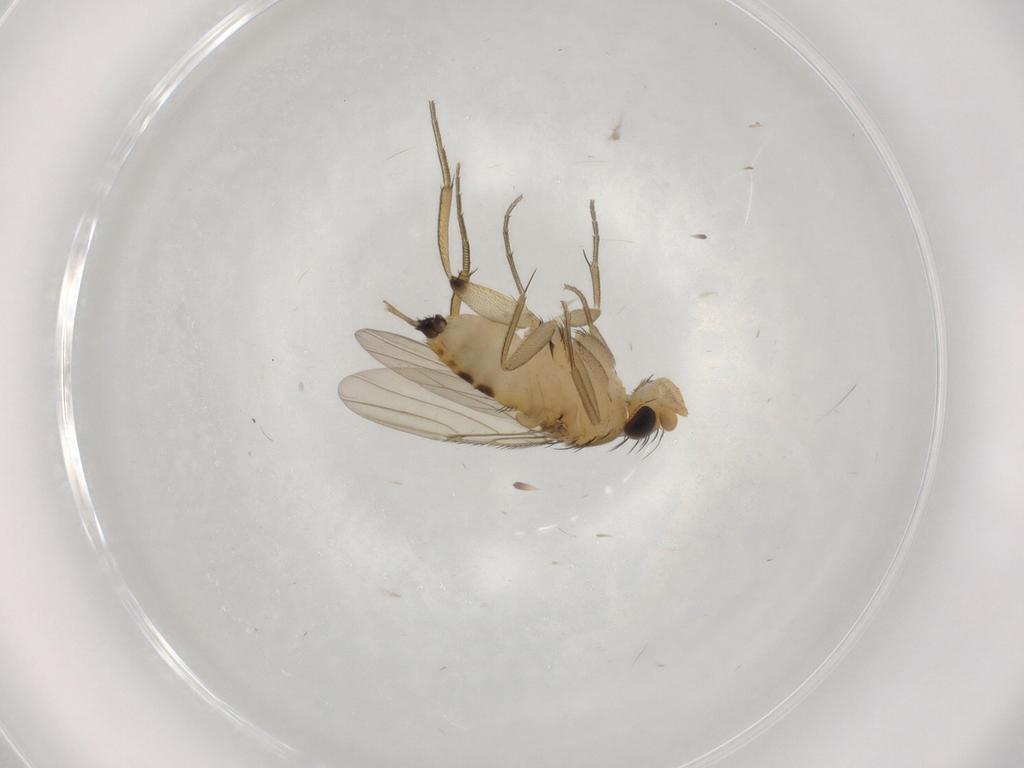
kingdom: Animalia
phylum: Arthropoda
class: Insecta
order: Diptera
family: Phoridae
